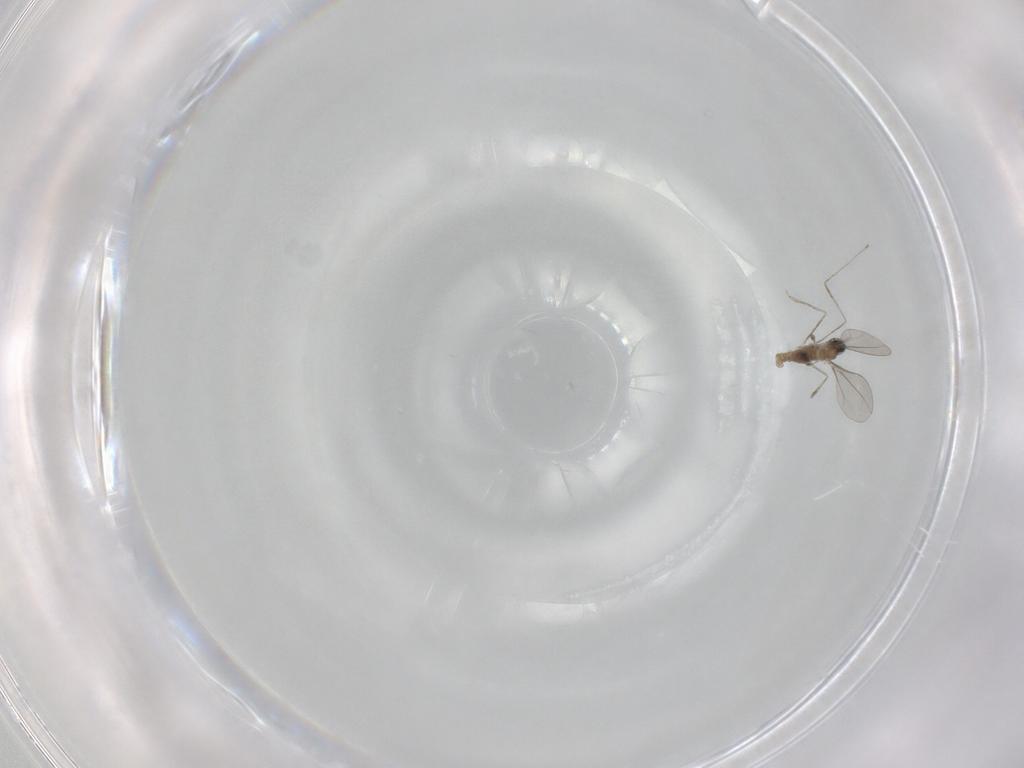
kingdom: Animalia
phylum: Arthropoda
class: Insecta
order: Diptera
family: Cecidomyiidae
